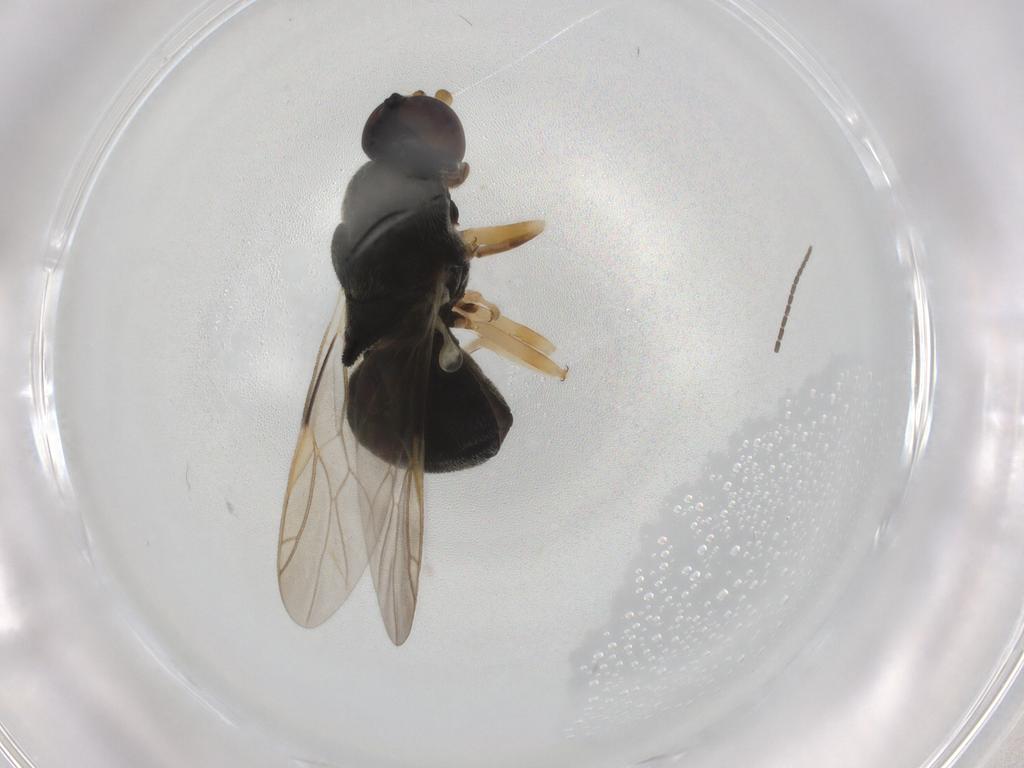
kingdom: Animalia
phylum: Arthropoda
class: Insecta
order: Diptera
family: Stratiomyidae
